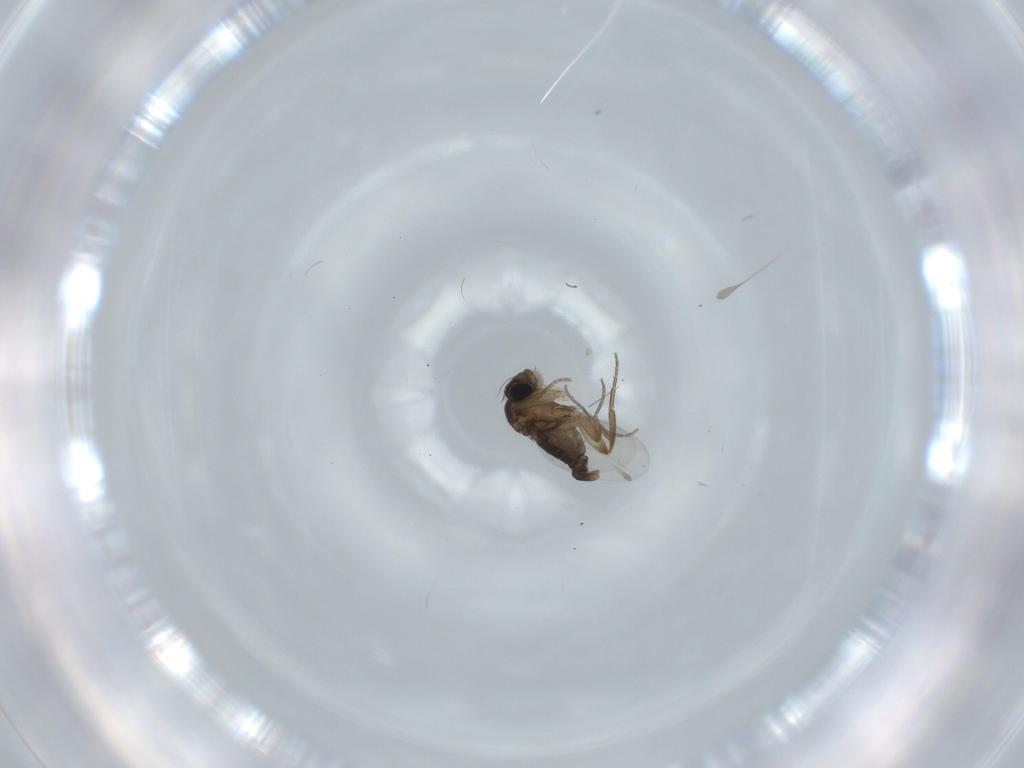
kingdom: Animalia
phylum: Arthropoda
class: Insecta
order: Diptera
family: Phoridae
